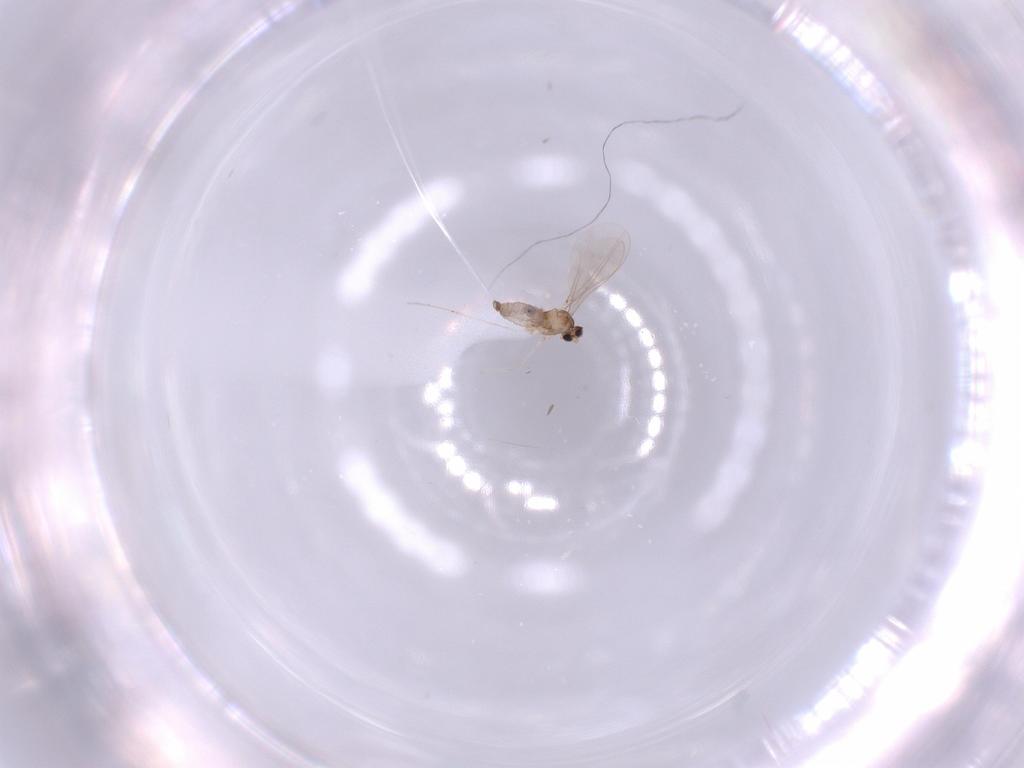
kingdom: Animalia
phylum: Arthropoda
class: Insecta
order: Diptera
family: Cecidomyiidae
